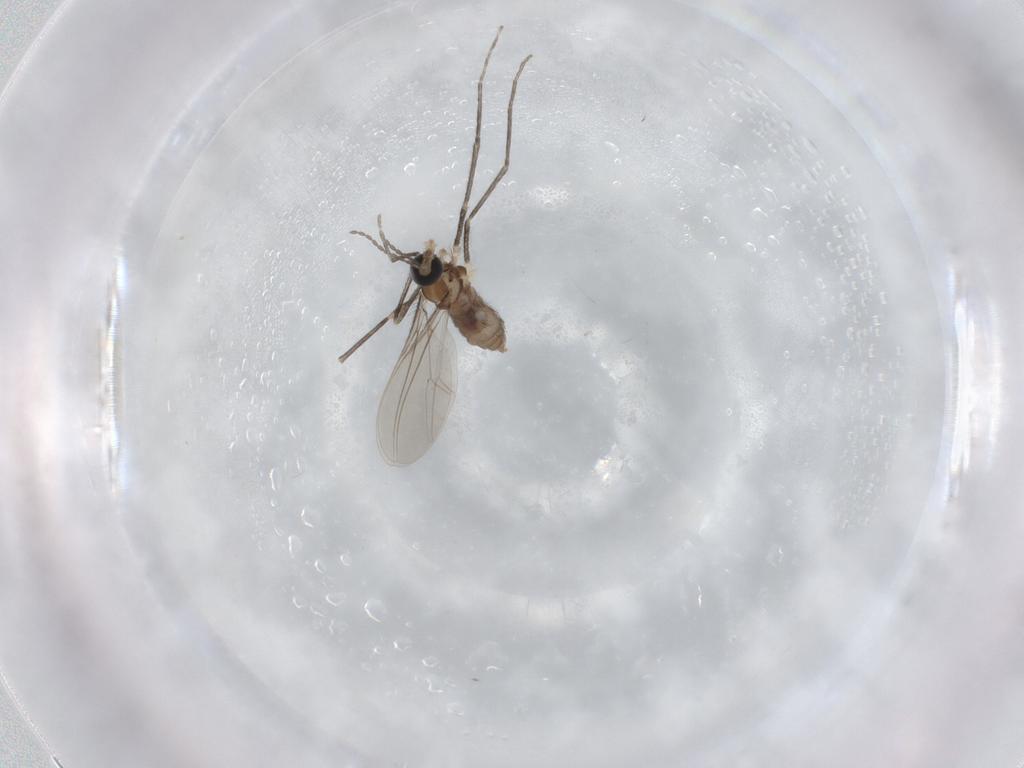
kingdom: Animalia
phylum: Arthropoda
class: Insecta
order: Diptera
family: Cecidomyiidae
